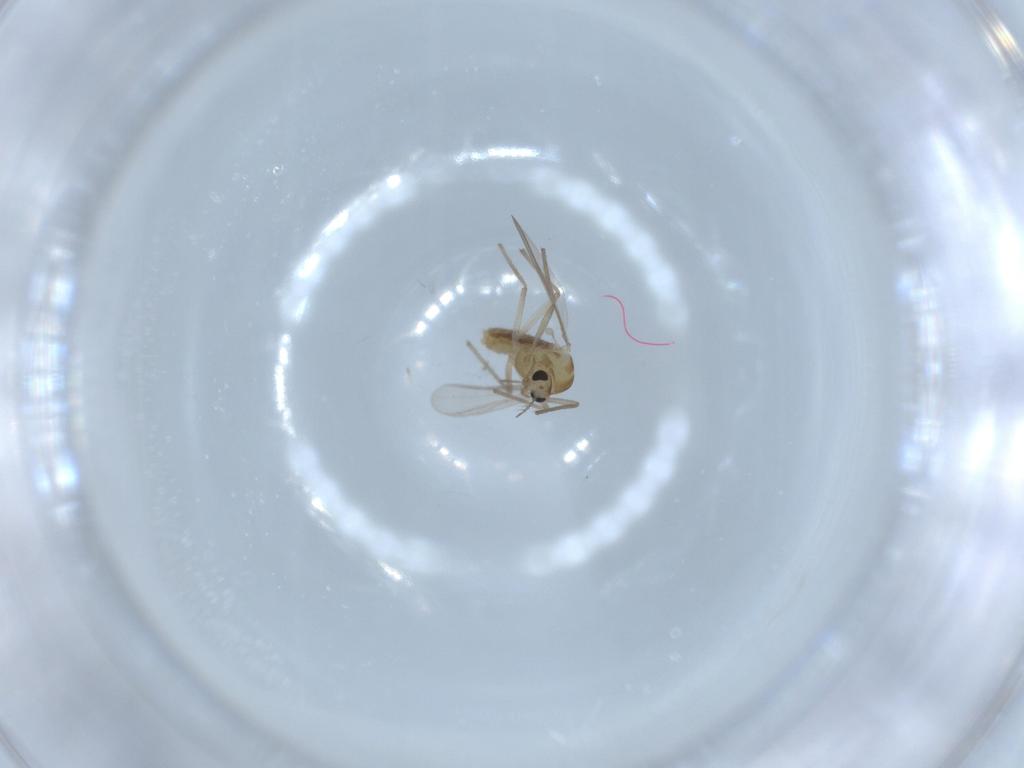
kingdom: Animalia
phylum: Arthropoda
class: Insecta
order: Diptera
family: Chironomidae
